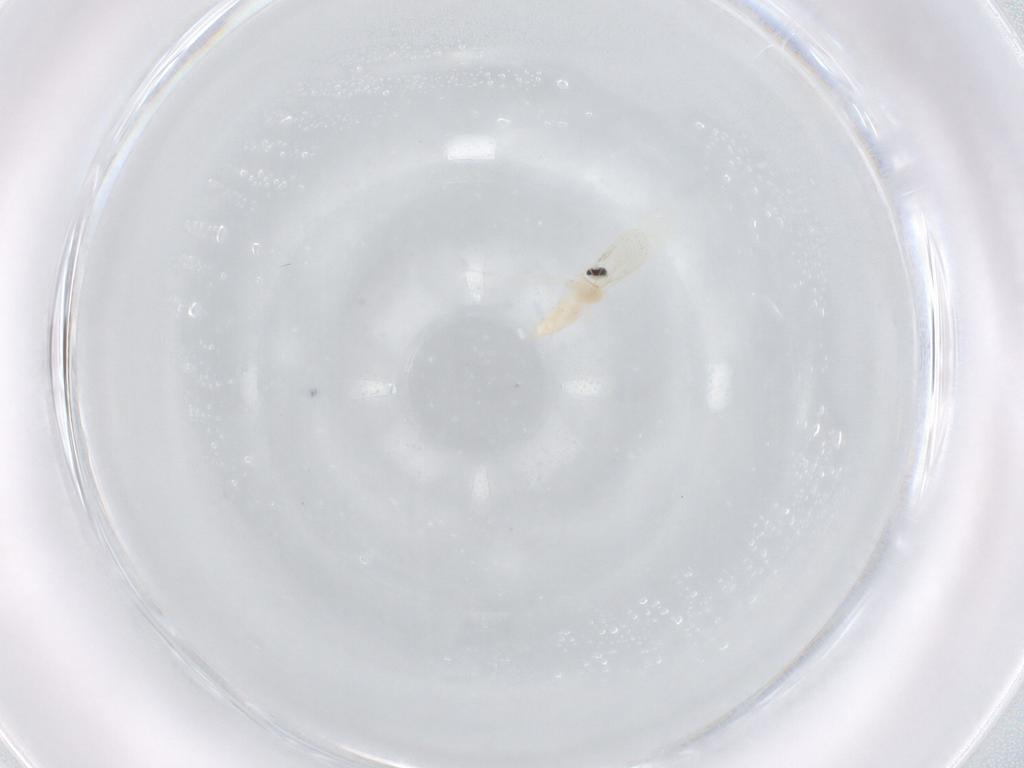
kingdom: Animalia
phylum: Arthropoda
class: Insecta
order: Diptera
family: Cecidomyiidae
